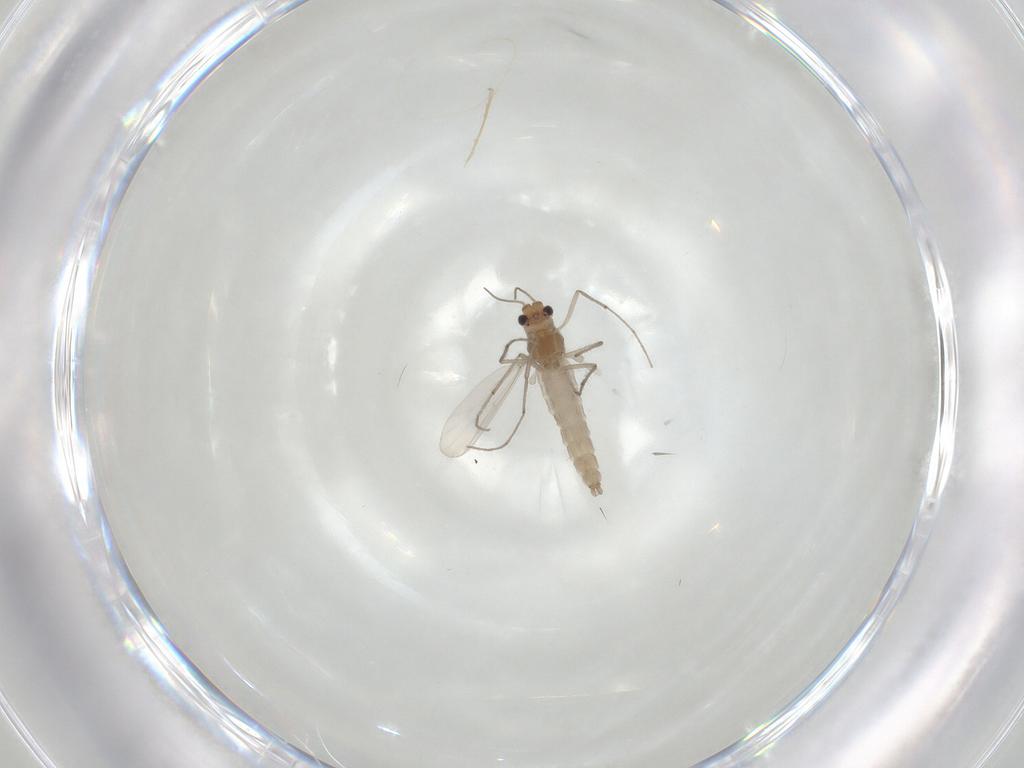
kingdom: Animalia
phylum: Arthropoda
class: Insecta
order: Diptera
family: Chironomidae
